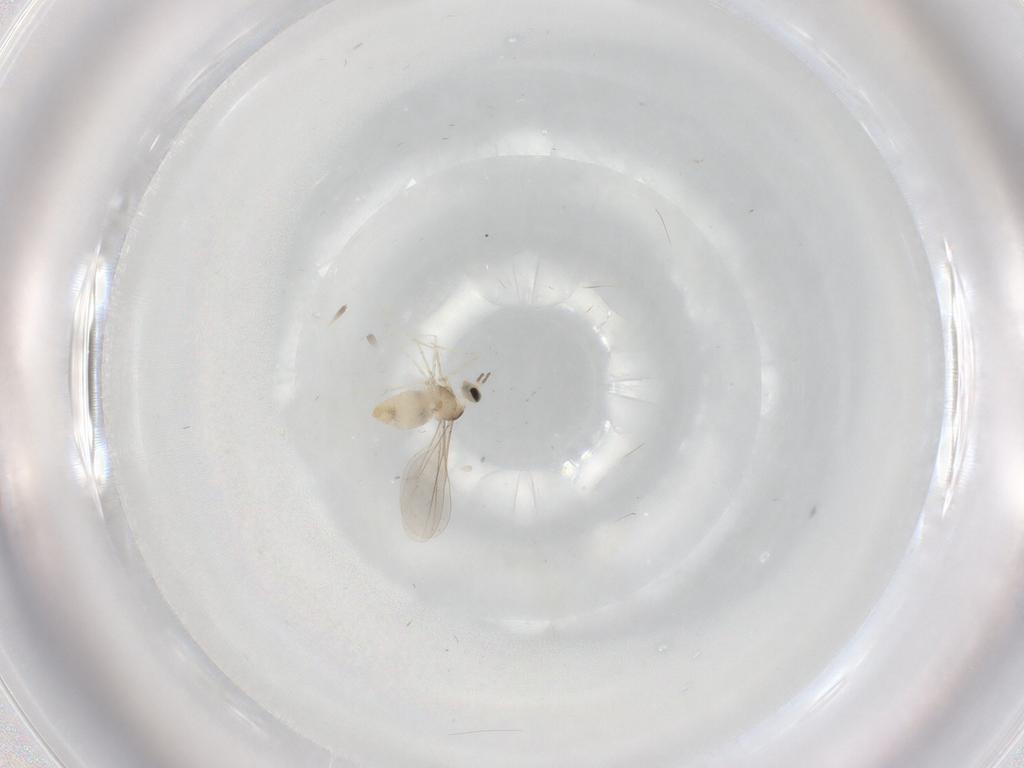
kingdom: Animalia
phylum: Arthropoda
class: Insecta
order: Diptera
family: Cecidomyiidae
